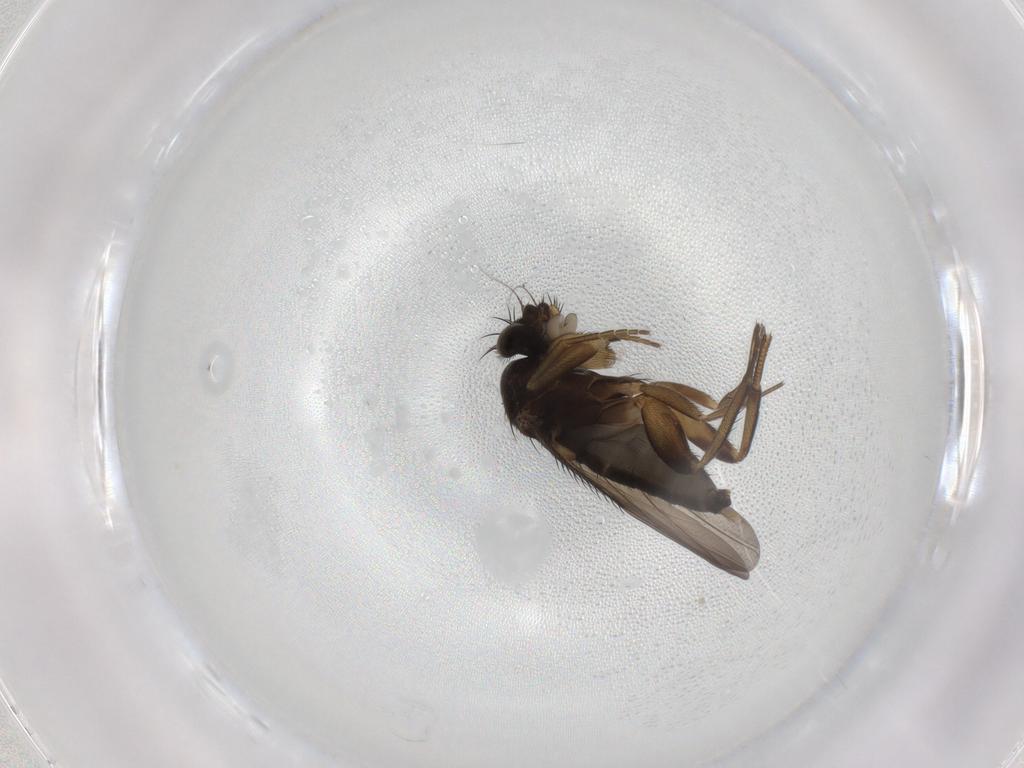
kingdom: Animalia
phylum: Arthropoda
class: Insecta
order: Diptera
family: Phoridae
